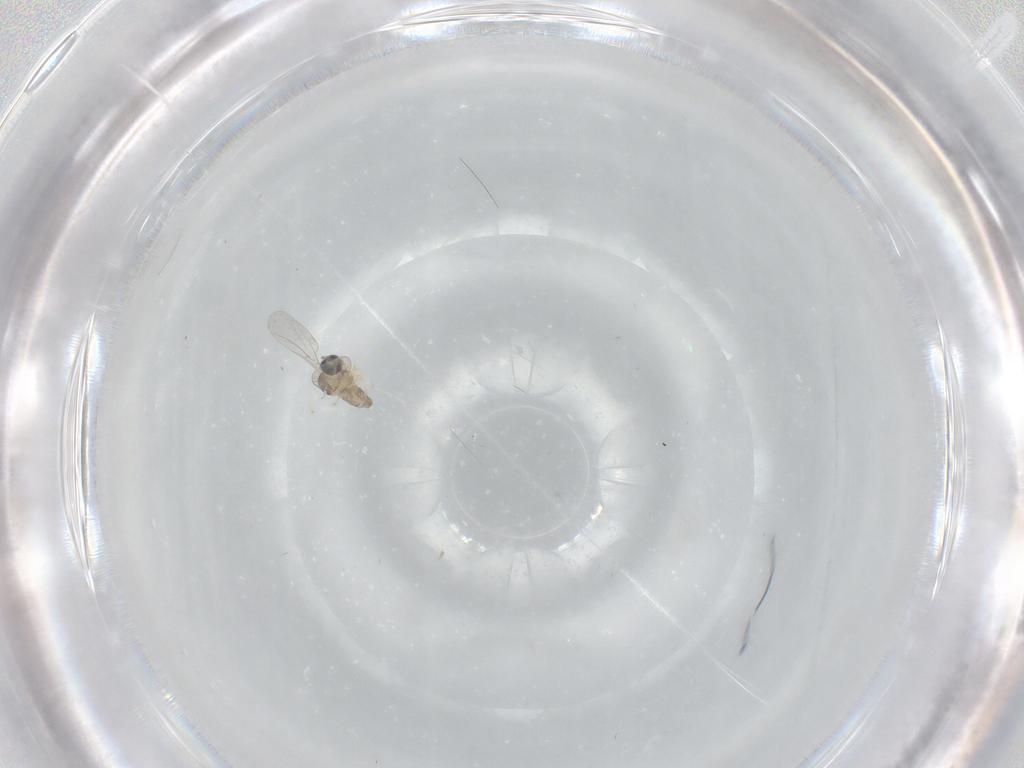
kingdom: Animalia
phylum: Arthropoda
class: Insecta
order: Diptera
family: Cecidomyiidae
